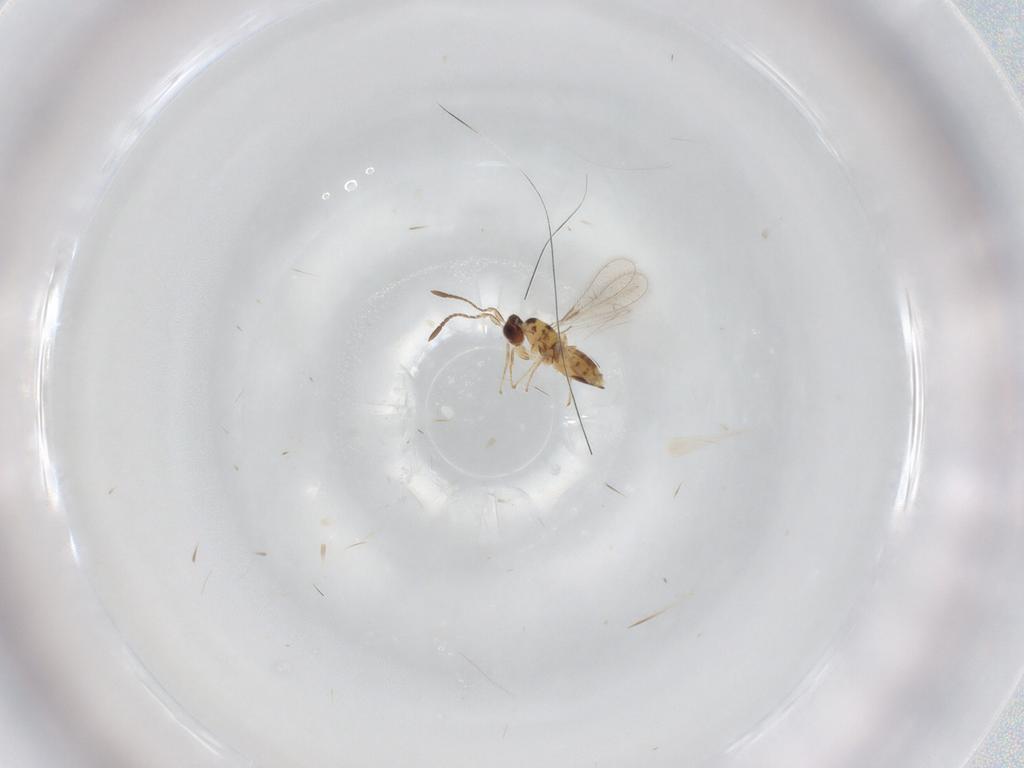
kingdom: Animalia
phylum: Arthropoda
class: Insecta
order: Hymenoptera
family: Mymaridae
